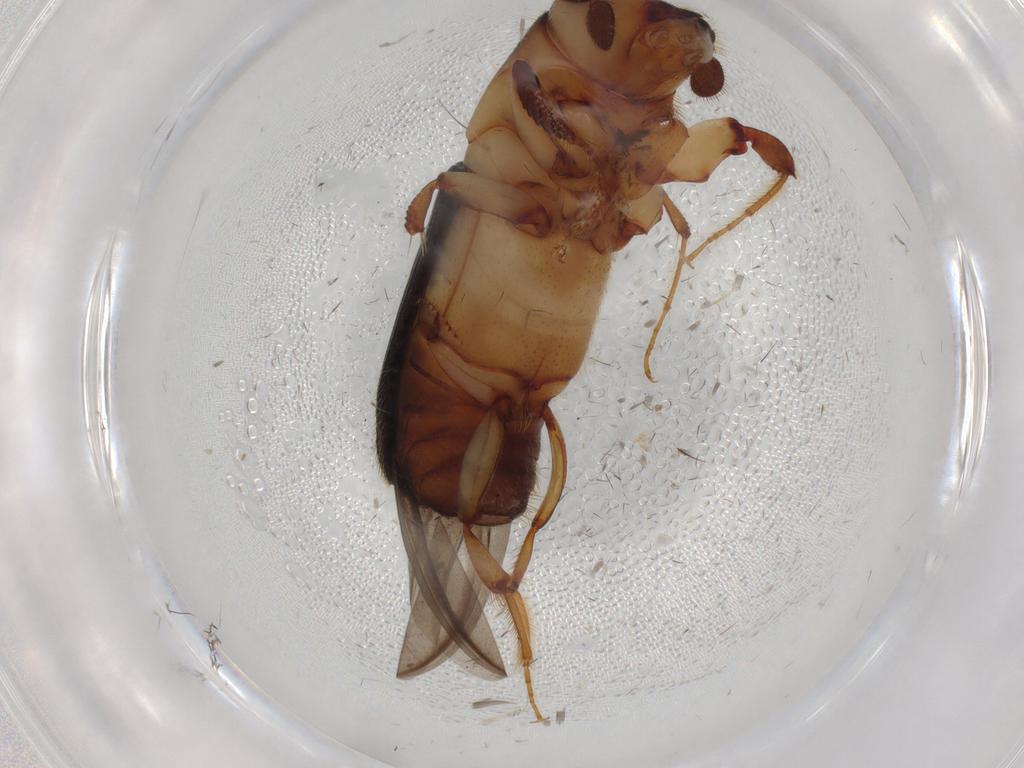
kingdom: Animalia
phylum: Arthropoda
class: Insecta
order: Coleoptera
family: Curculionidae
